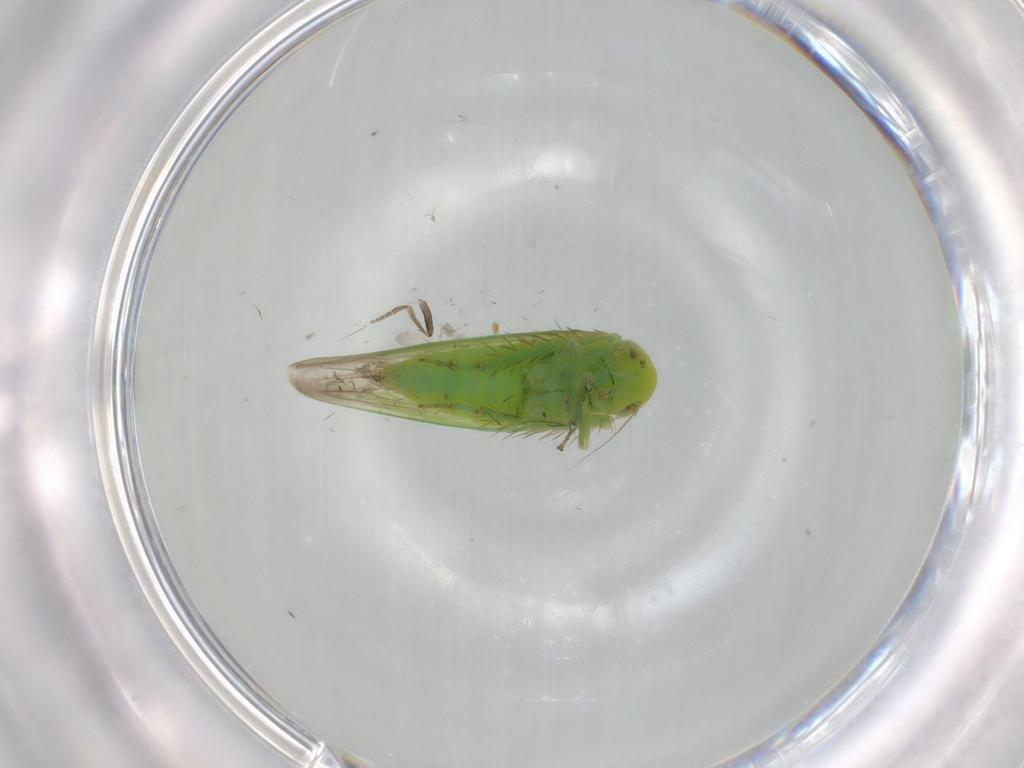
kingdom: Animalia
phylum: Arthropoda
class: Insecta
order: Hemiptera
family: Cicadellidae
